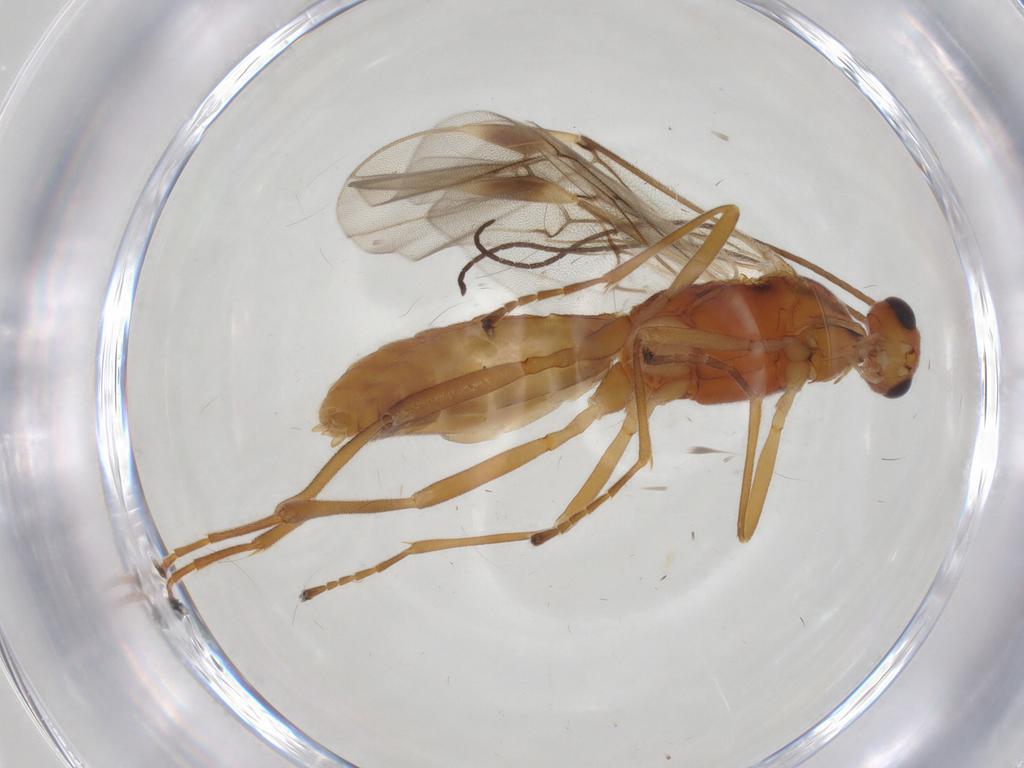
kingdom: Animalia
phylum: Arthropoda
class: Insecta
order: Hymenoptera
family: Braconidae
